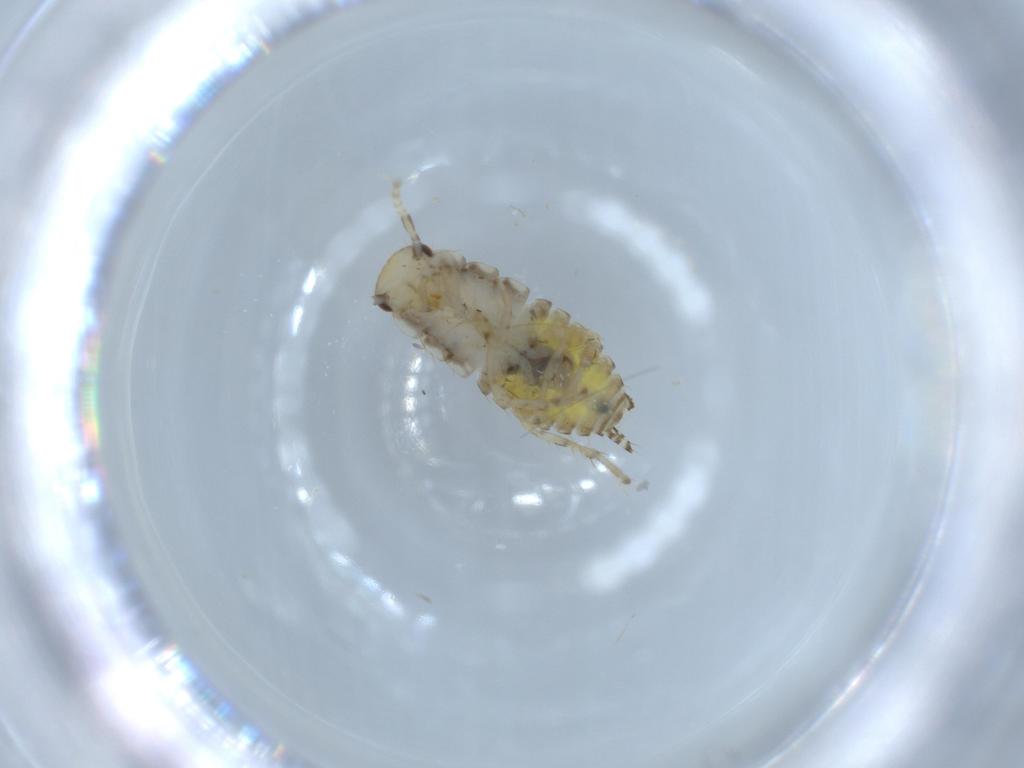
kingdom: Animalia
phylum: Arthropoda
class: Insecta
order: Blattodea
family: Ectobiidae
